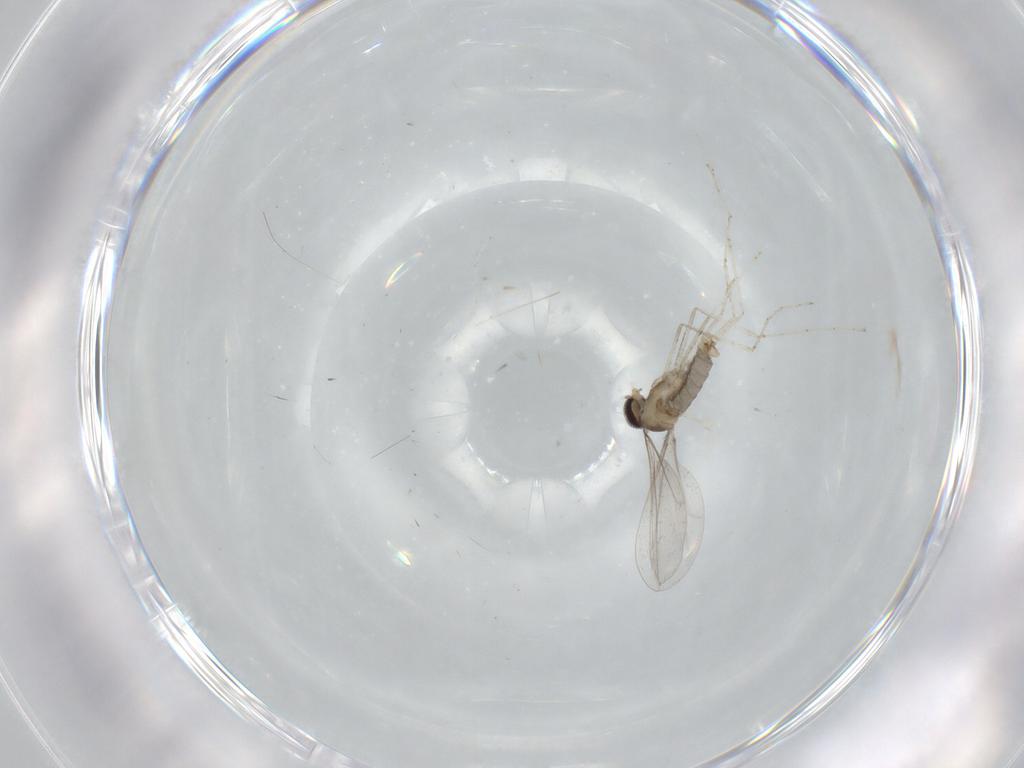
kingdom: Animalia
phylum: Arthropoda
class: Insecta
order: Diptera
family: Cecidomyiidae
